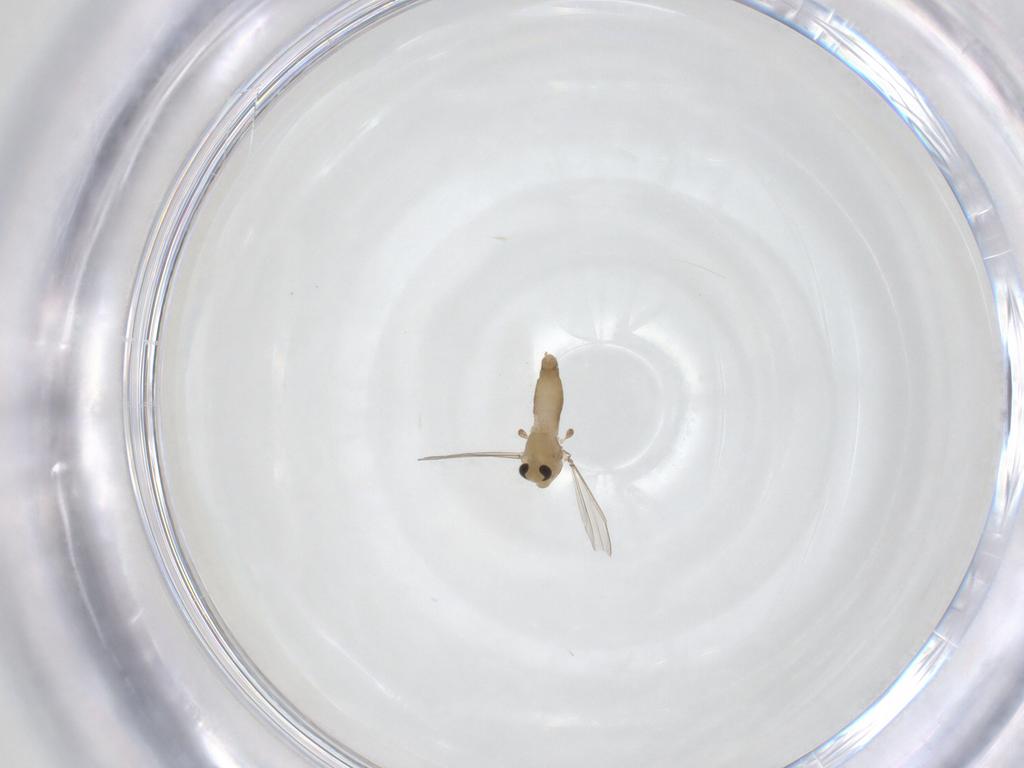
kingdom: Animalia
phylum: Arthropoda
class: Insecta
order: Diptera
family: Chironomidae
